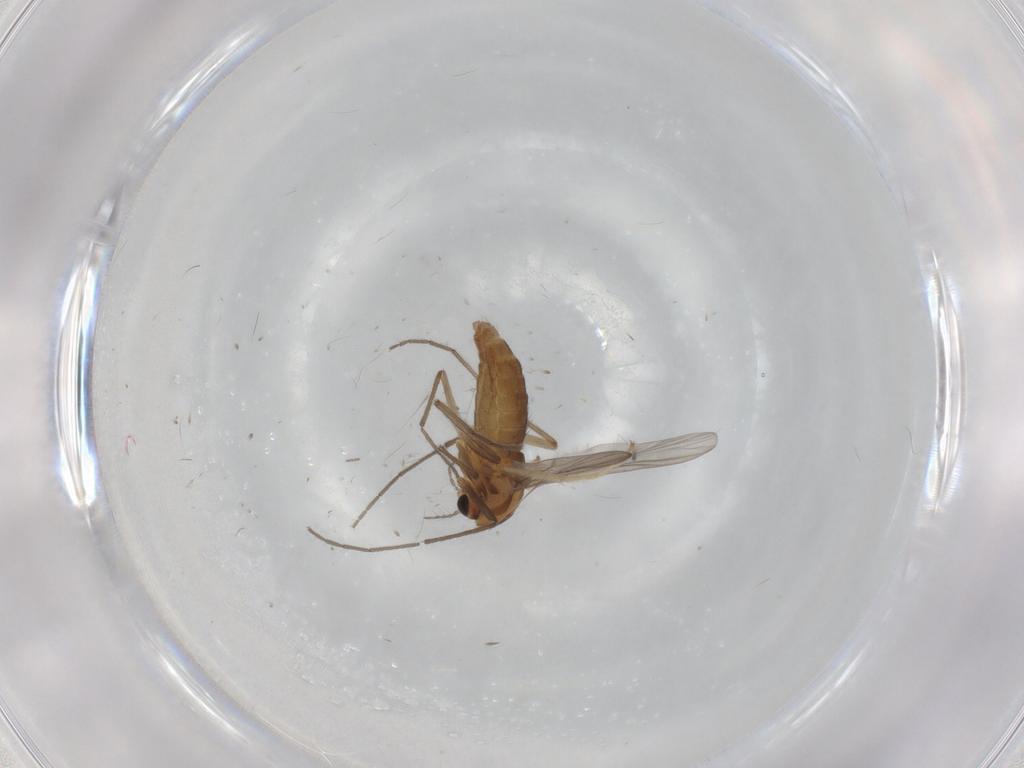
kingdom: Animalia
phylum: Arthropoda
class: Insecta
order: Diptera
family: Chironomidae
